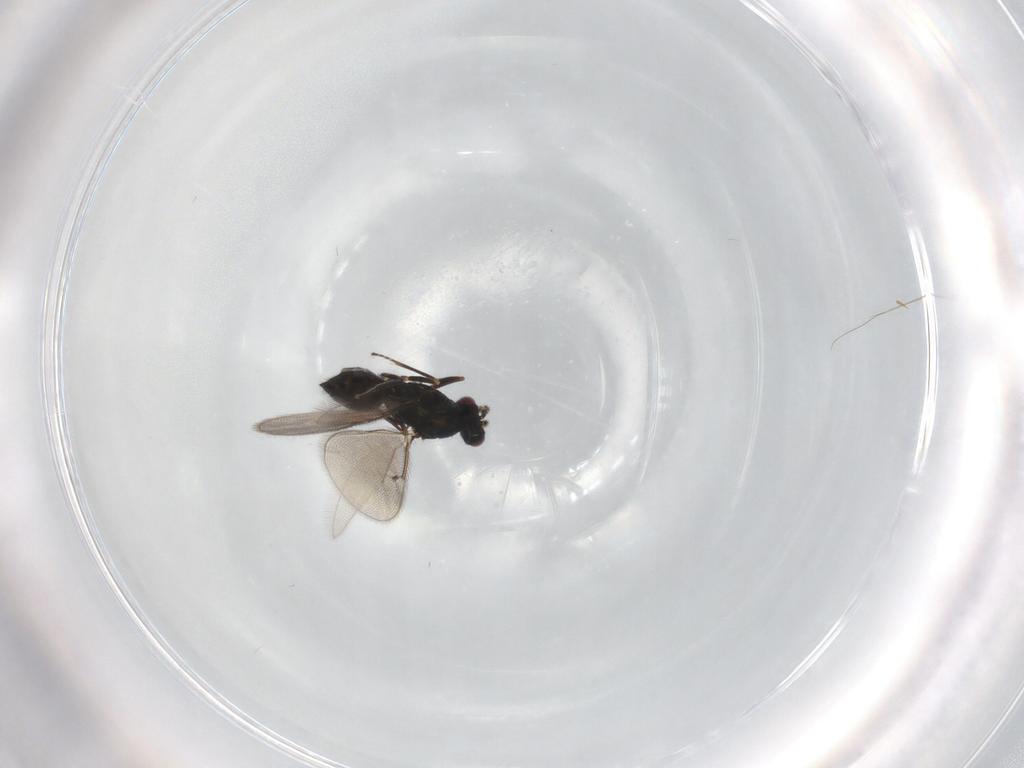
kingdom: Animalia
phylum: Arthropoda
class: Insecta
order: Hymenoptera
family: Eulophidae
